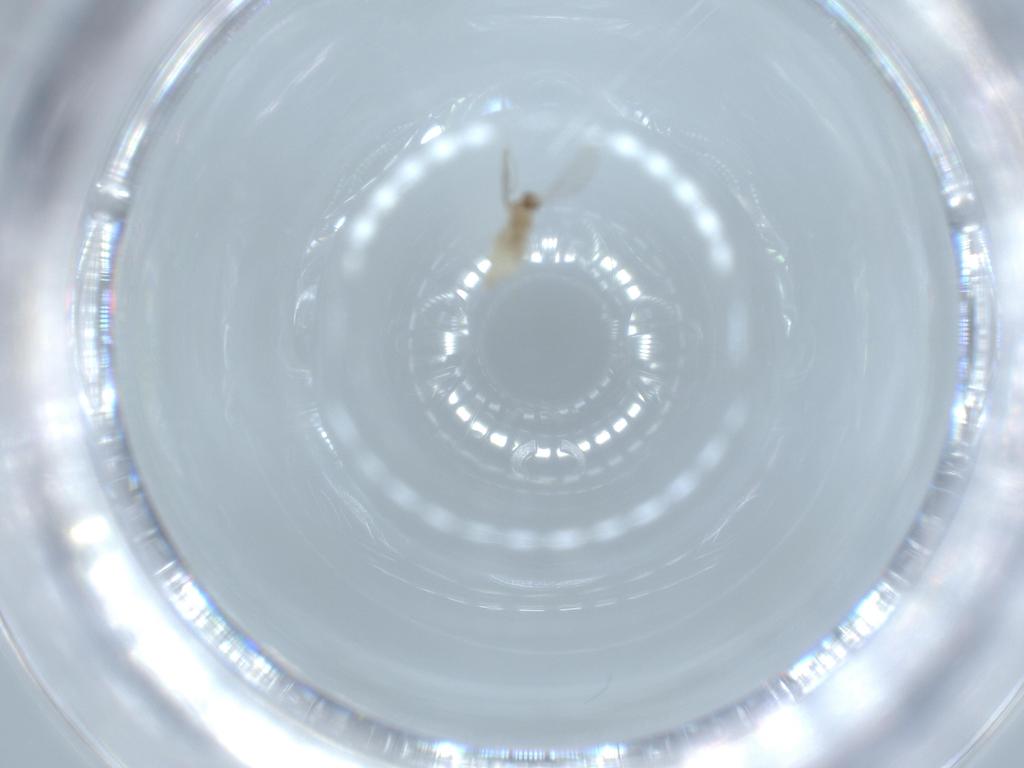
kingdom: Animalia
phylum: Arthropoda
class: Insecta
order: Diptera
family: Cecidomyiidae
